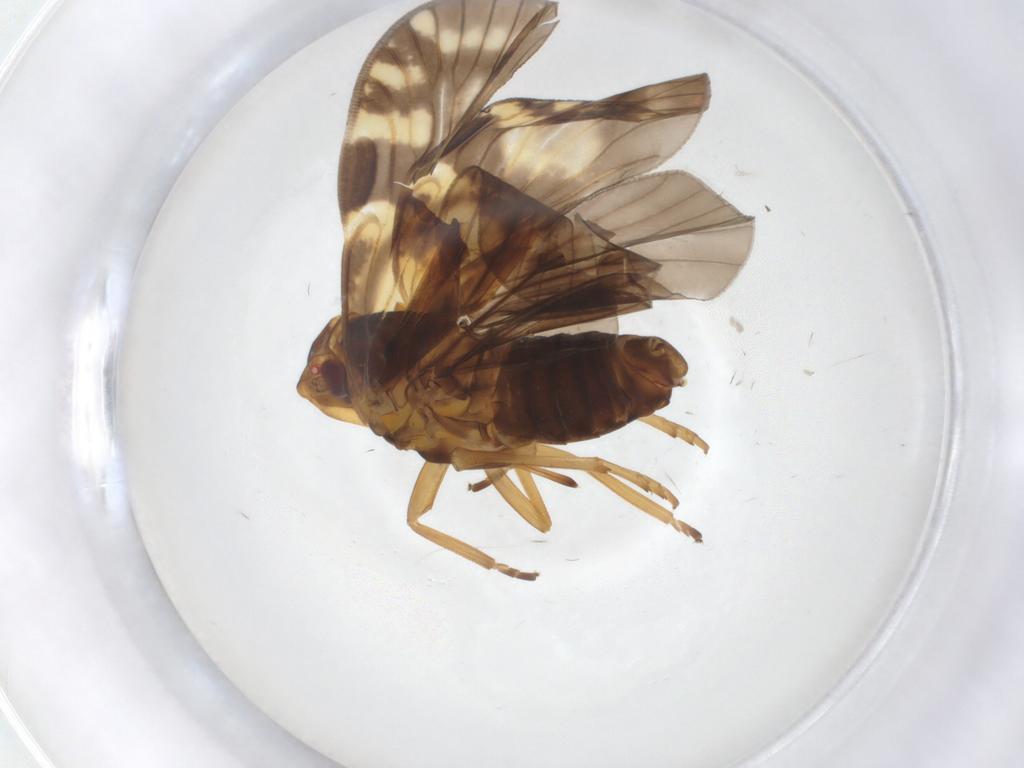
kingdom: Animalia
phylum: Arthropoda
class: Insecta
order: Hemiptera
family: Cixiidae
